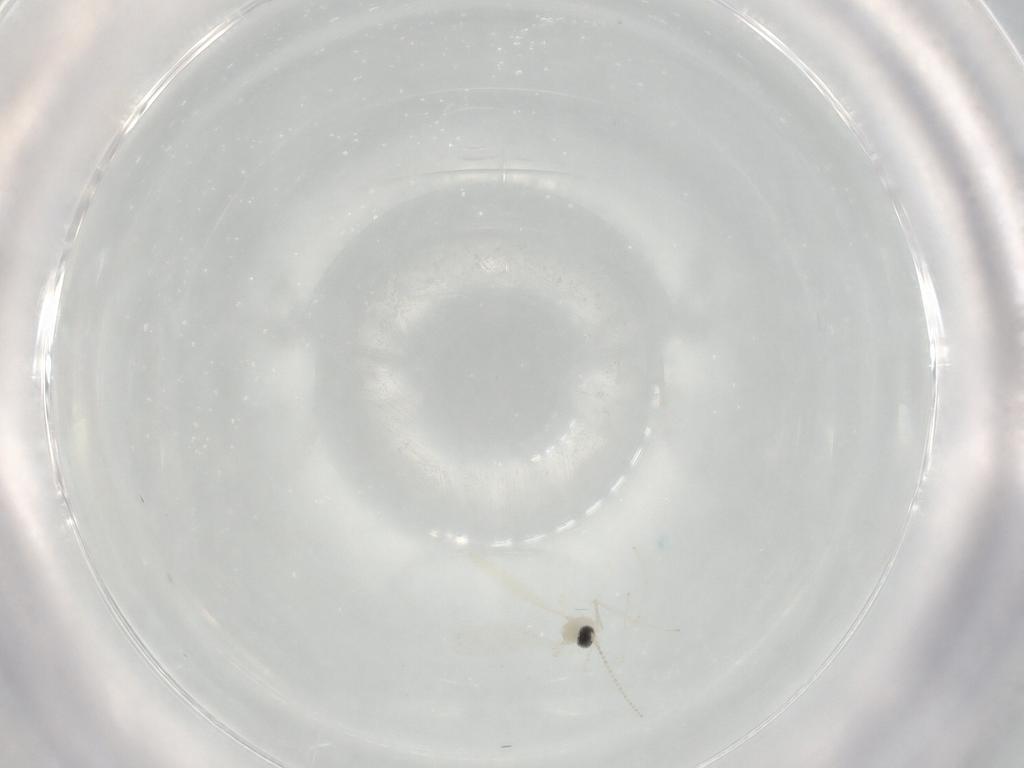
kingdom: Animalia
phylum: Arthropoda
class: Insecta
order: Diptera
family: Cecidomyiidae
